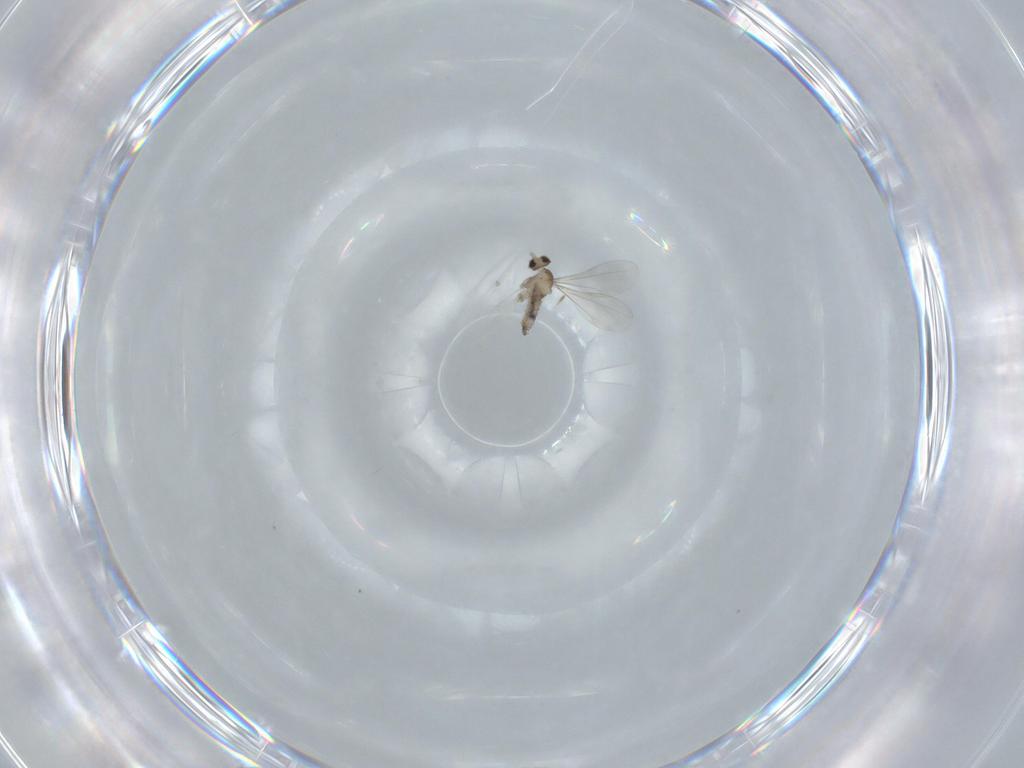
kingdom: Animalia
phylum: Arthropoda
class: Insecta
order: Diptera
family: Cecidomyiidae
